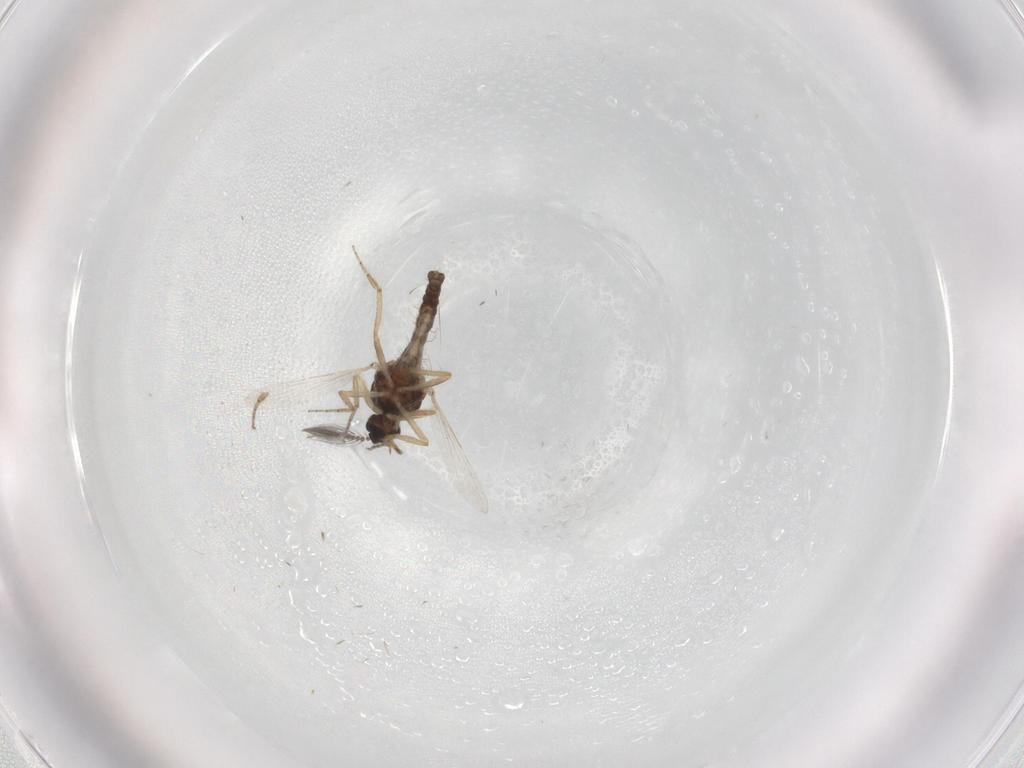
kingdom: Animalia
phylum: Arthropoda
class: Insecta
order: Diptera
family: Ceratopogonidae
